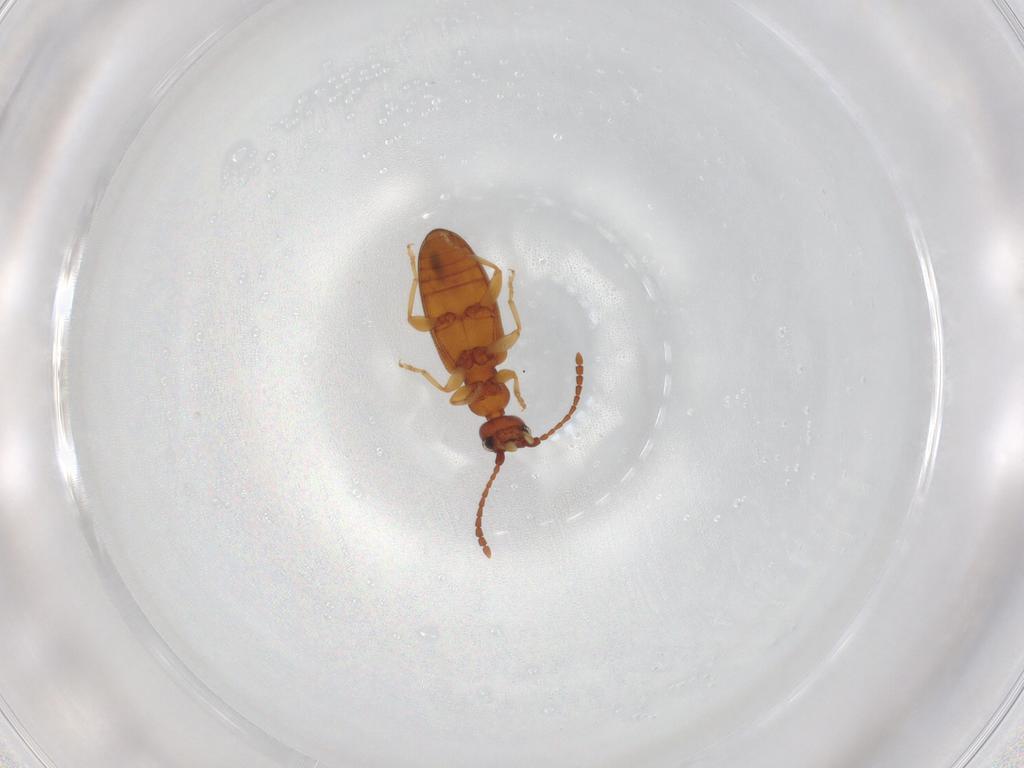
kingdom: Animalia
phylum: Arthropoda
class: Insecta
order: Coleoptera
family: Anthicidae
